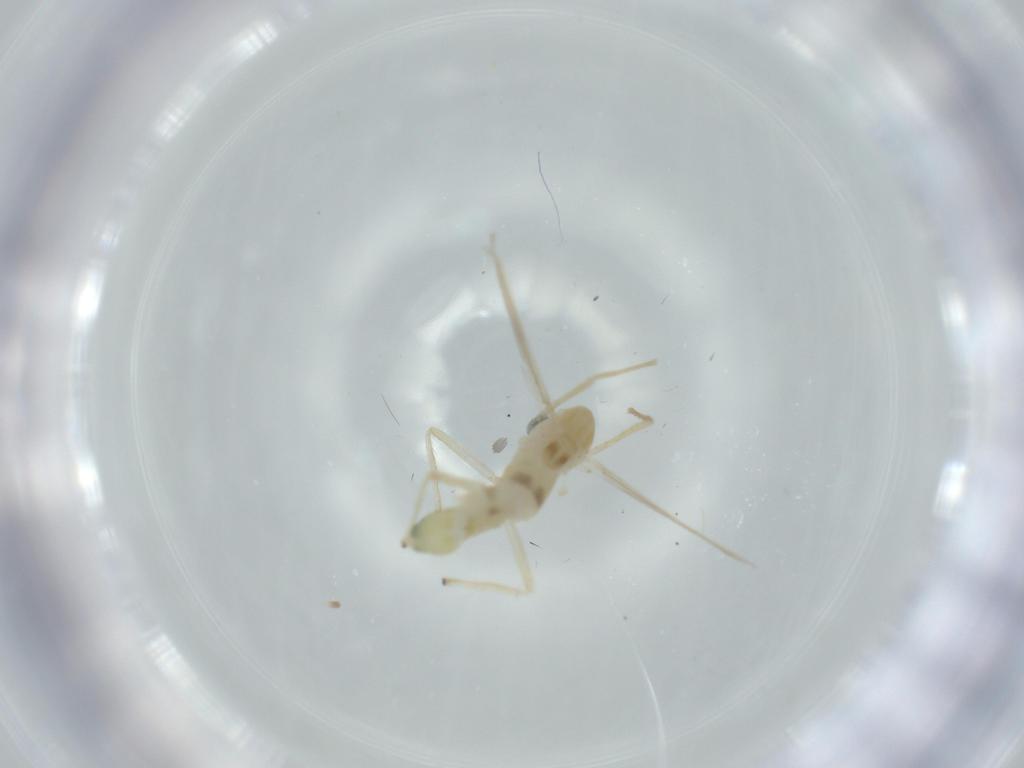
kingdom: Animalia
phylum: Arthropoda
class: Insecta
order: Diptera
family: Chironomidae
